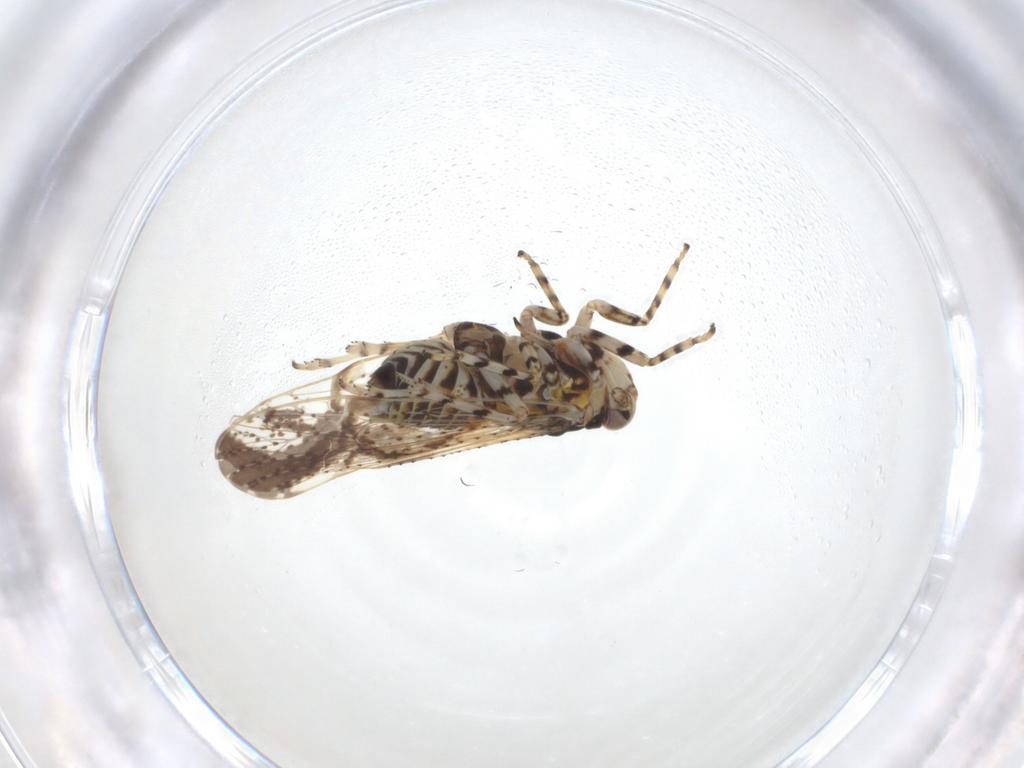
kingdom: Animalia
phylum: Arthropoda
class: Insecta
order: Hemiptera
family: Delphacidae
